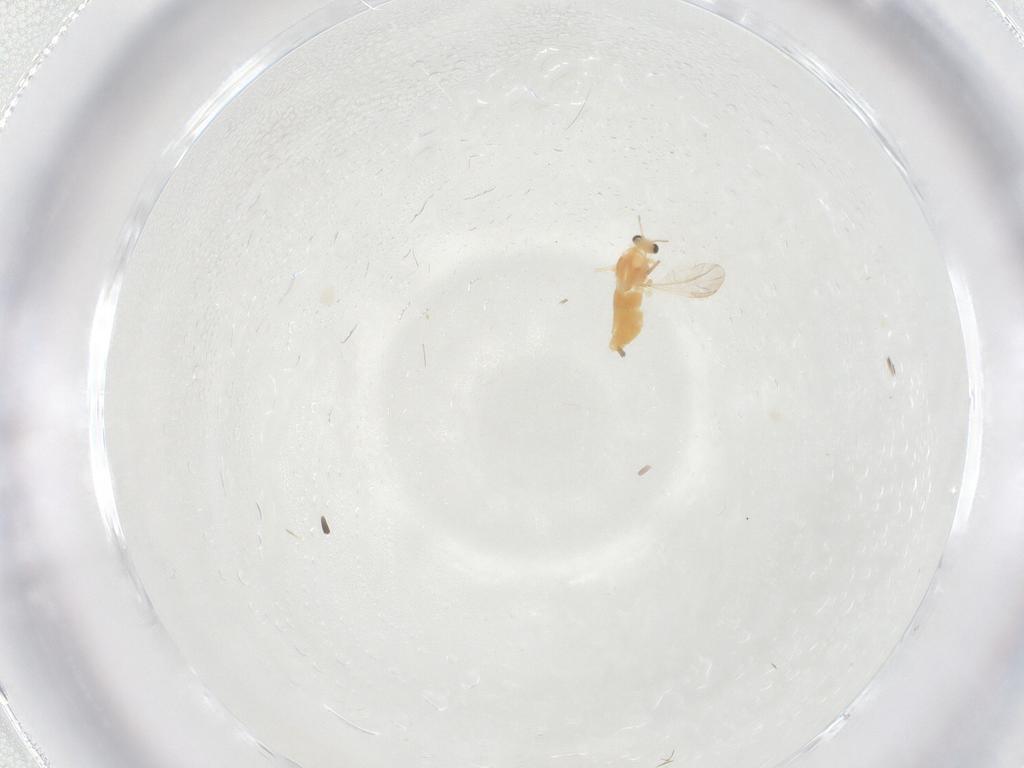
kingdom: Animalia
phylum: Arthropoda
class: Insecta
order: Diptera
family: Chironomidae
